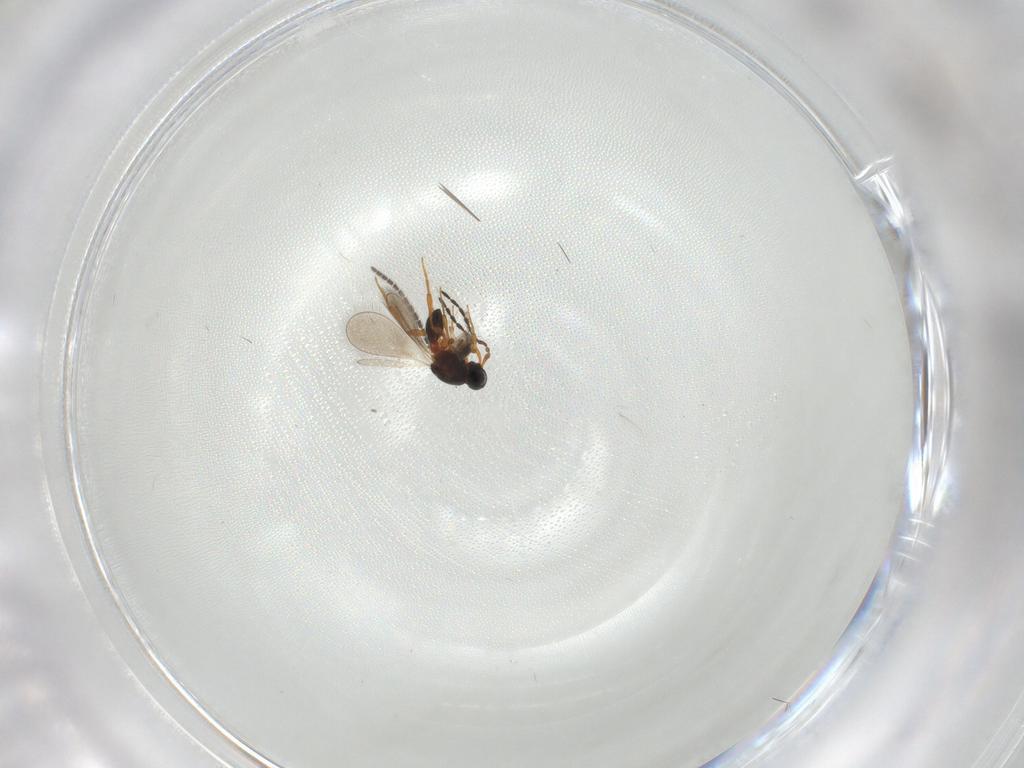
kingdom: Animalia
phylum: Arthropoda
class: Insecta
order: Hymenoptera
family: Platygastridae
